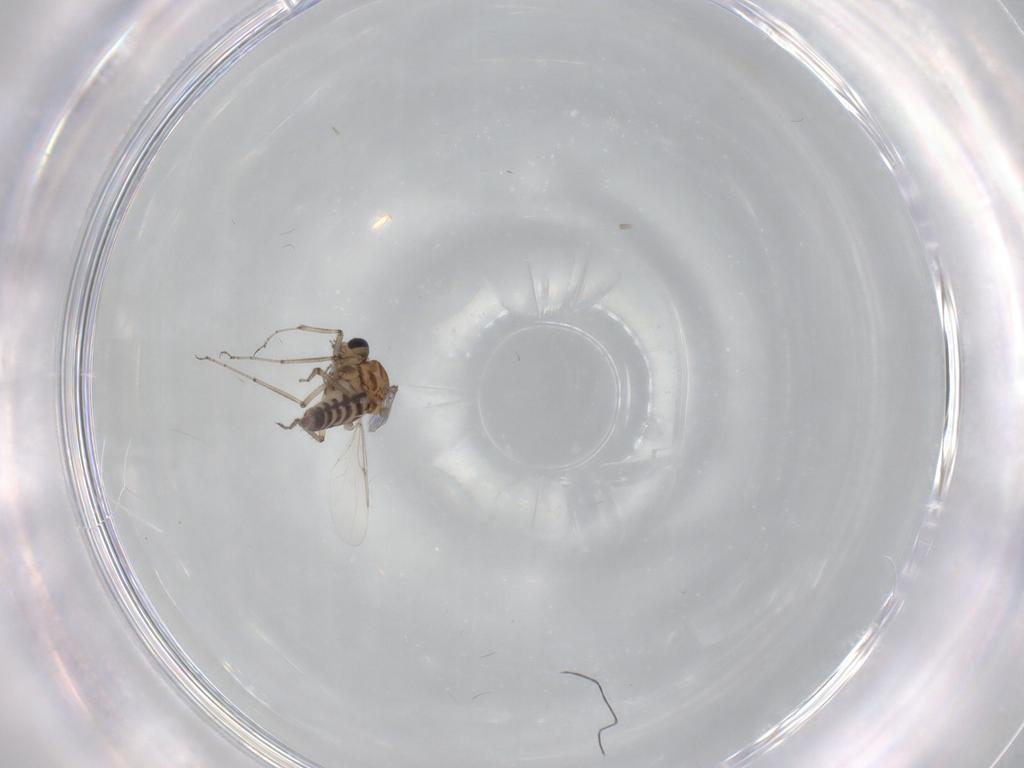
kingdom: Animalia
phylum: Arthropoda
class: Insecta
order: Diptera
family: Ceratopogonidae
